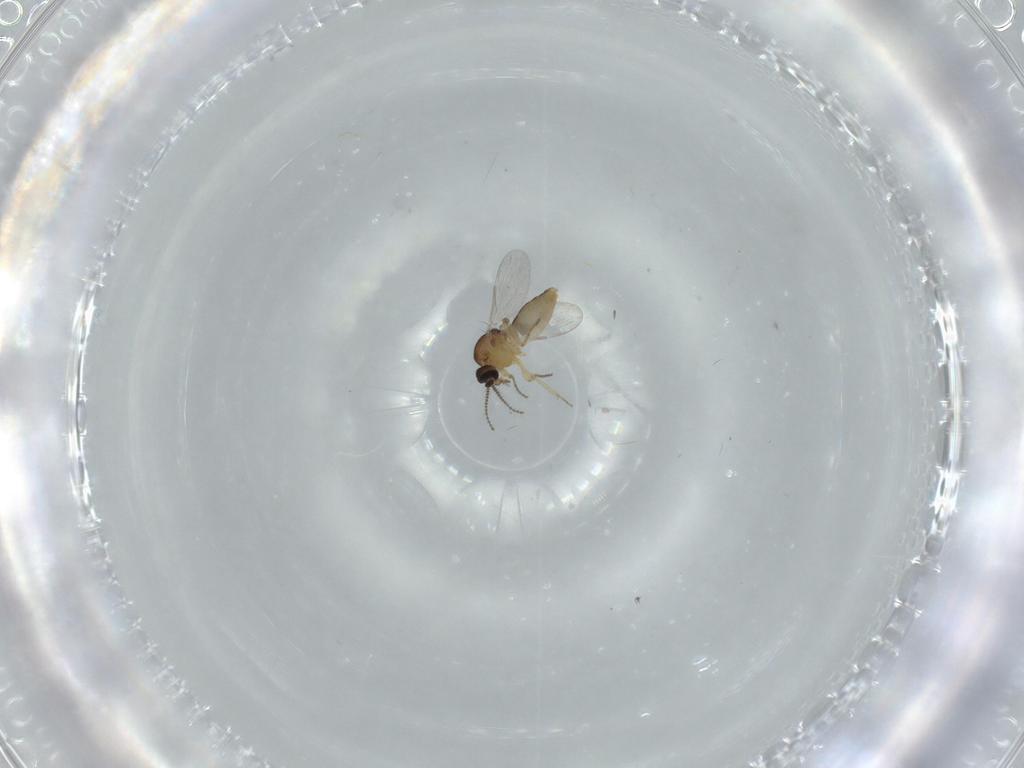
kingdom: Animalia
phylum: Arthropoda
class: Insecta
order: Diptera
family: Ceratopogonidae
